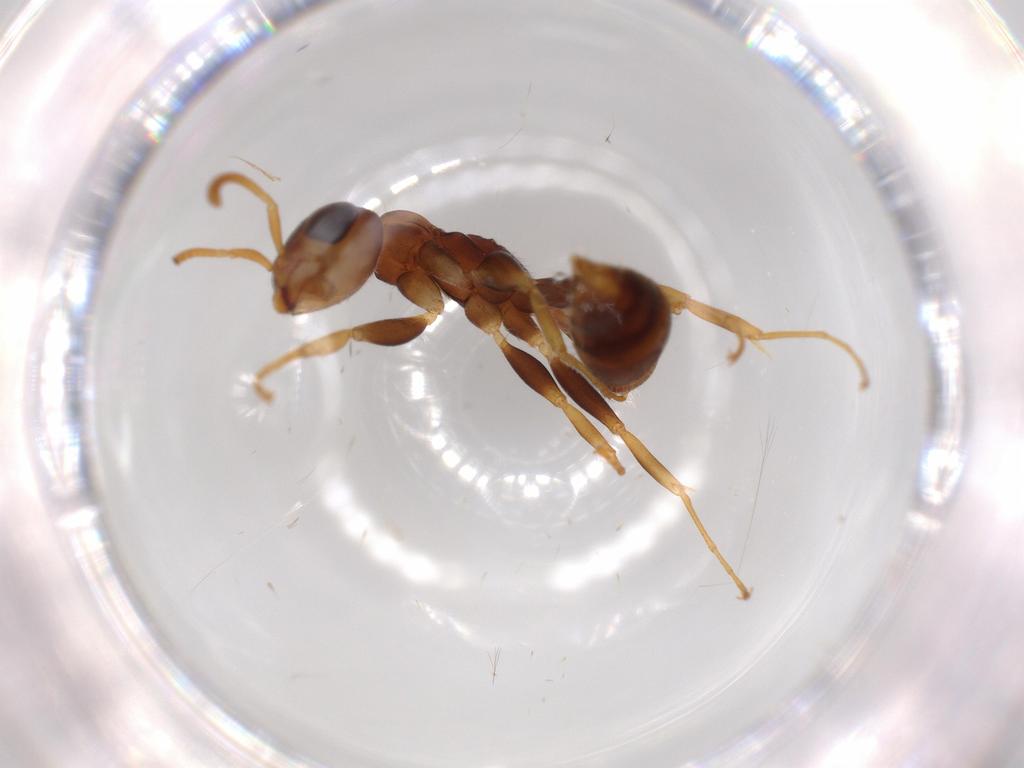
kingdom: Animalia
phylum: Arthropoda
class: Insecta
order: Hymenoptera
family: Formicidae
